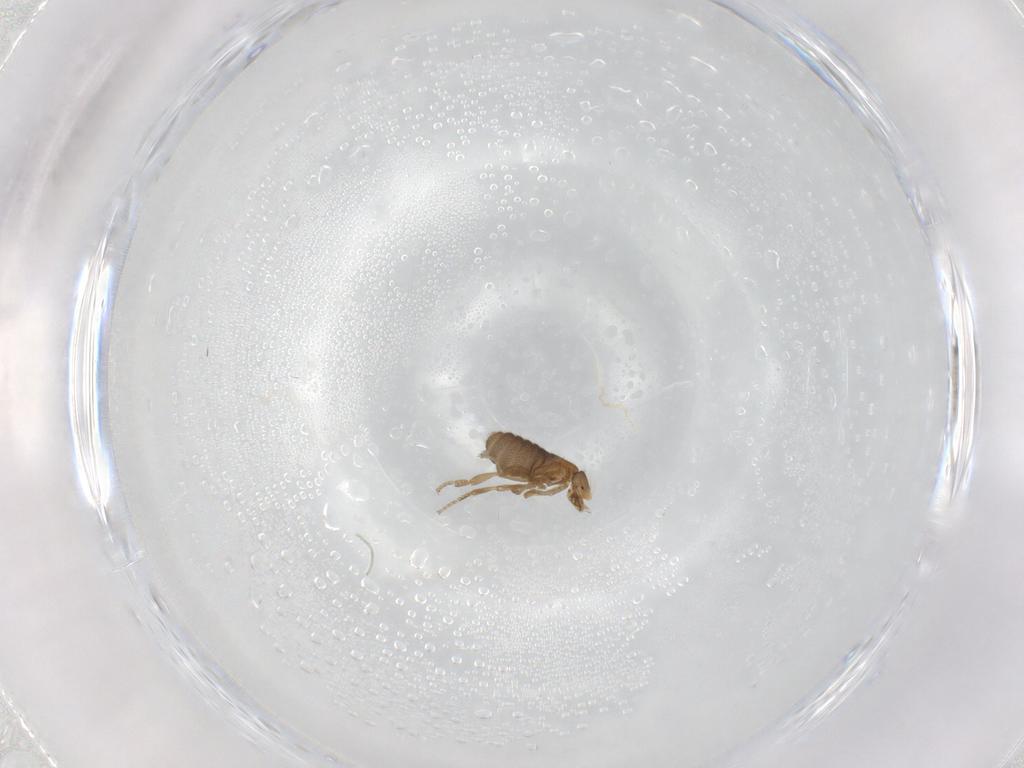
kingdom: Animalia
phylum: Arthropoda
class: Insecta
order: Diptera
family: Phoridae
